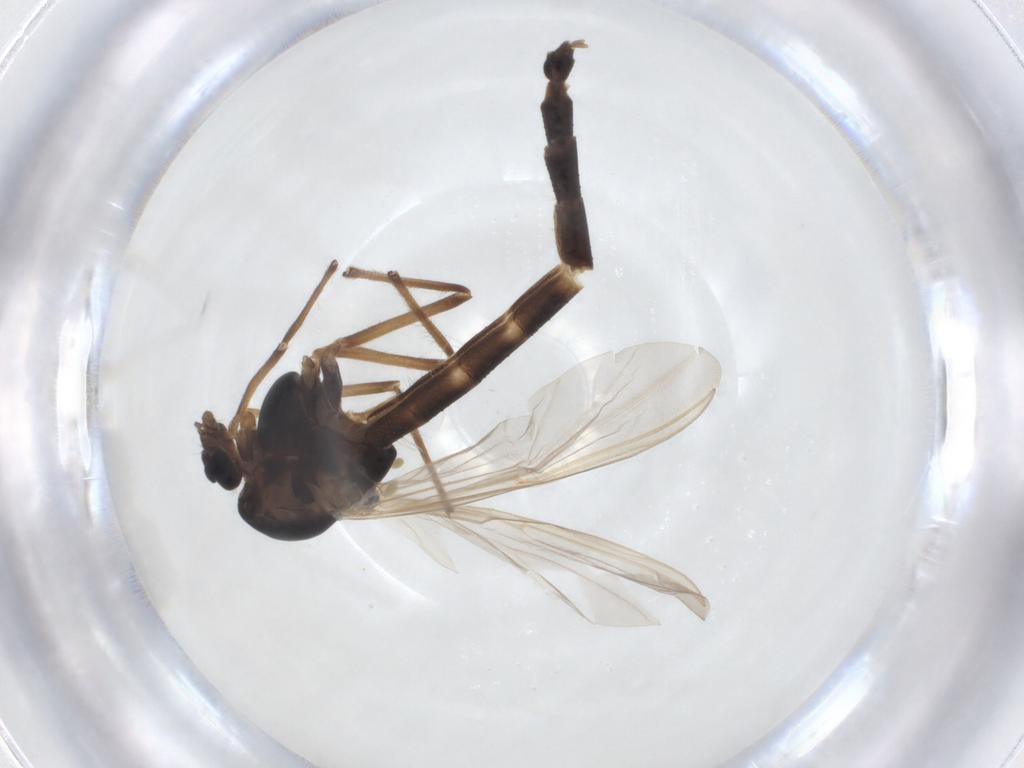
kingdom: Animalia
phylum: Arthropoda
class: Insecta
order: Diptera
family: Chironomidae
